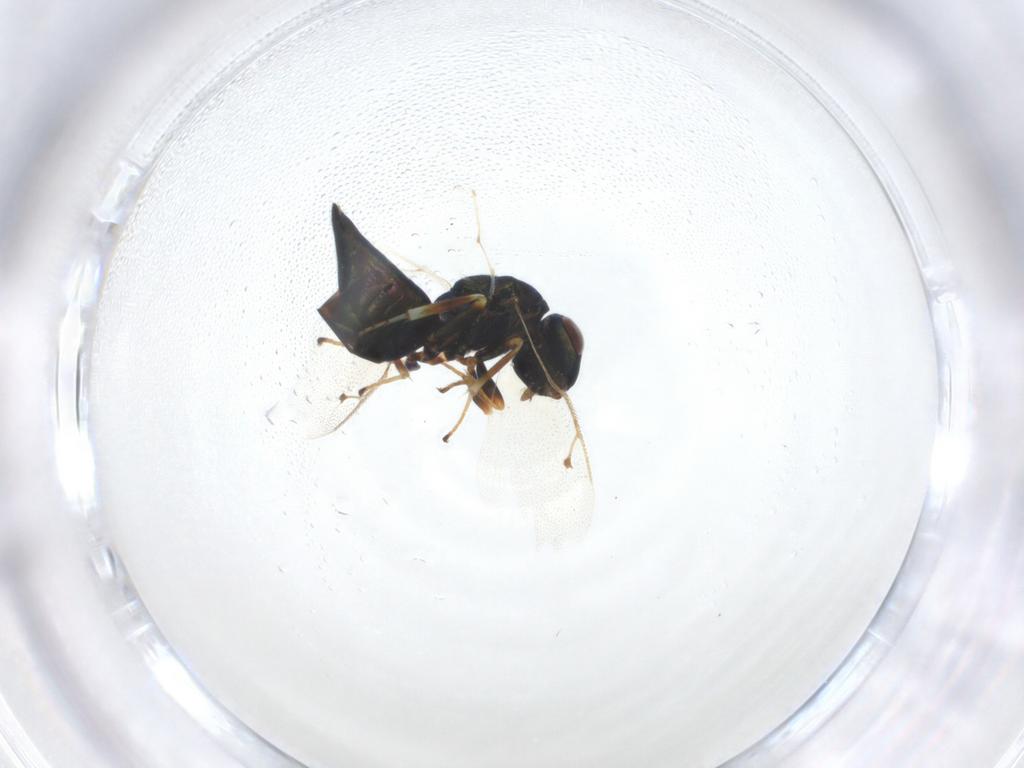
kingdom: Animalia
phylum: Arthropoda
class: Insecta
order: Hymenoptera
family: Pteromalidae
